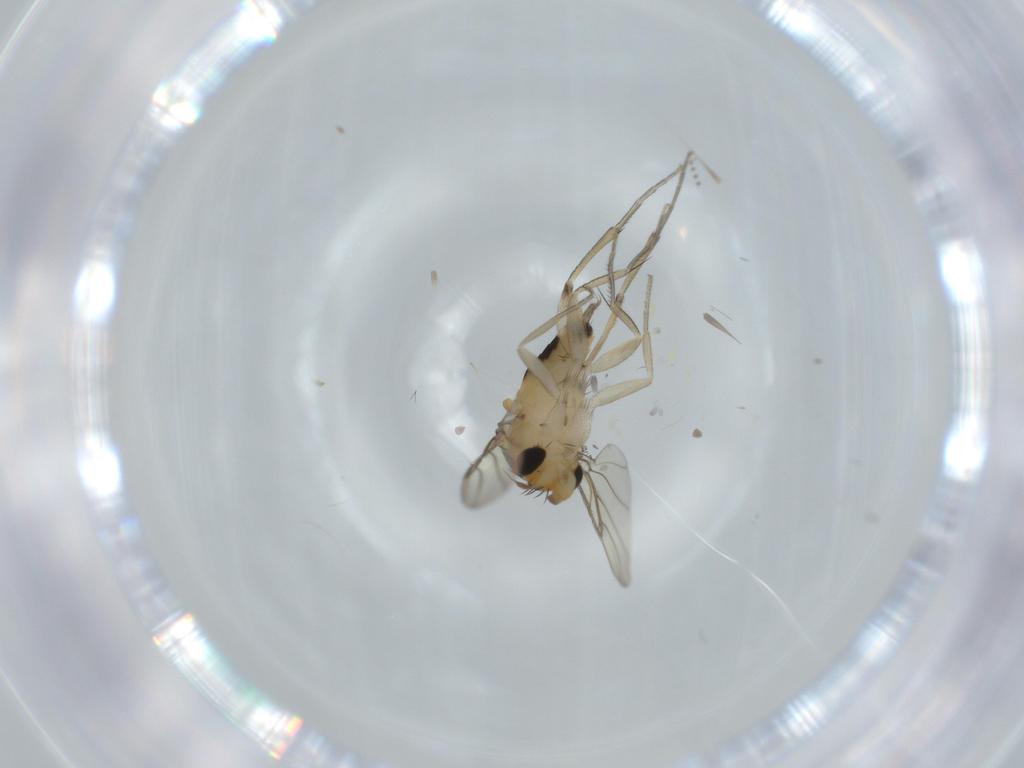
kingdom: Animalia
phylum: Arthropoda
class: Insecta
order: Diptera
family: Phoridae
